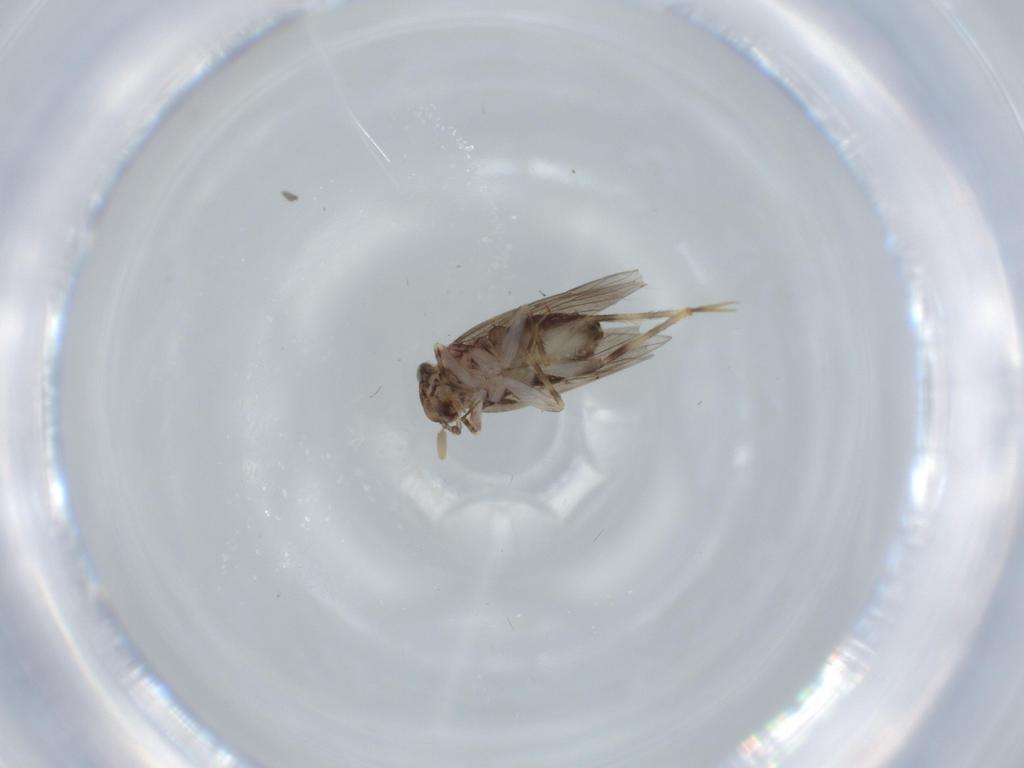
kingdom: Animalia
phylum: Arthropoda
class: Insecta
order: Psocodea
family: Lepidopsocidae
